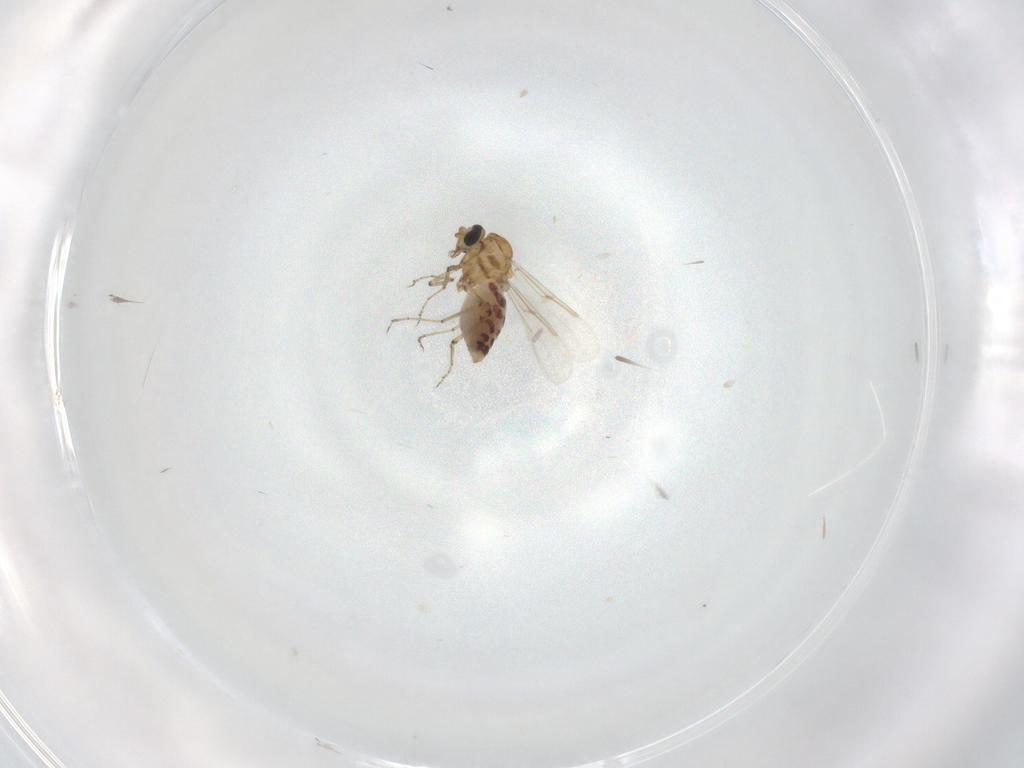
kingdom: Animalia
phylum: Arthropoda
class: Insecta
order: Diptera
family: Ceratopogonidae
